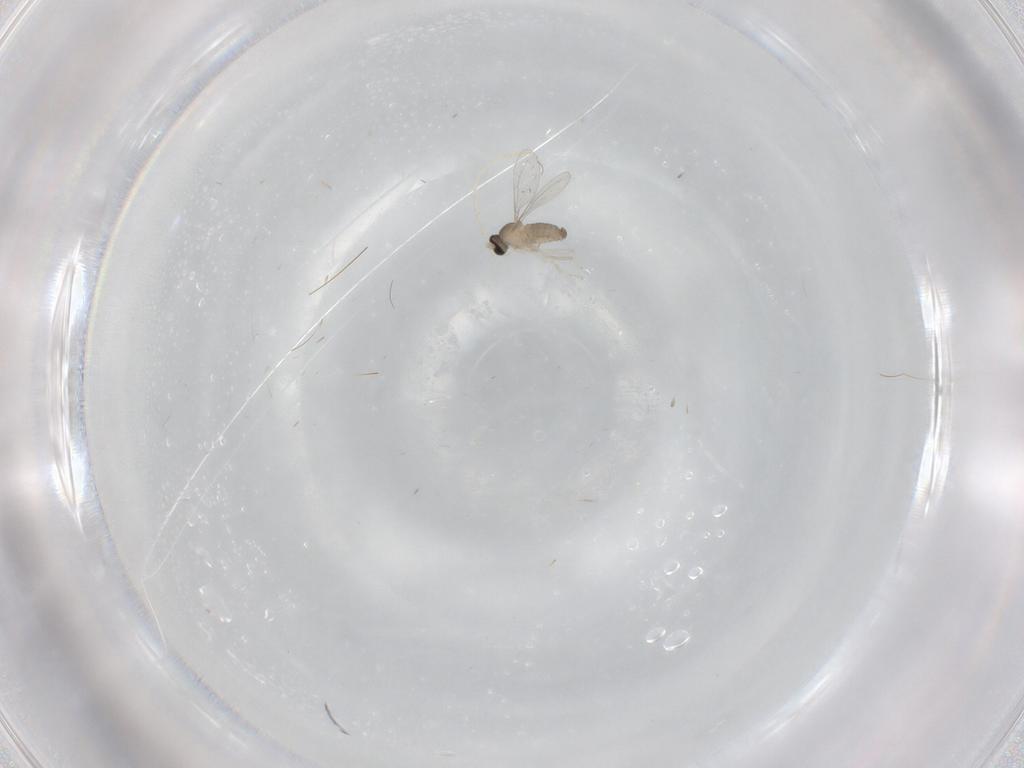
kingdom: Animalia
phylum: Arthropoda
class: Insecta
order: Diptera
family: Cecidomyiidae
